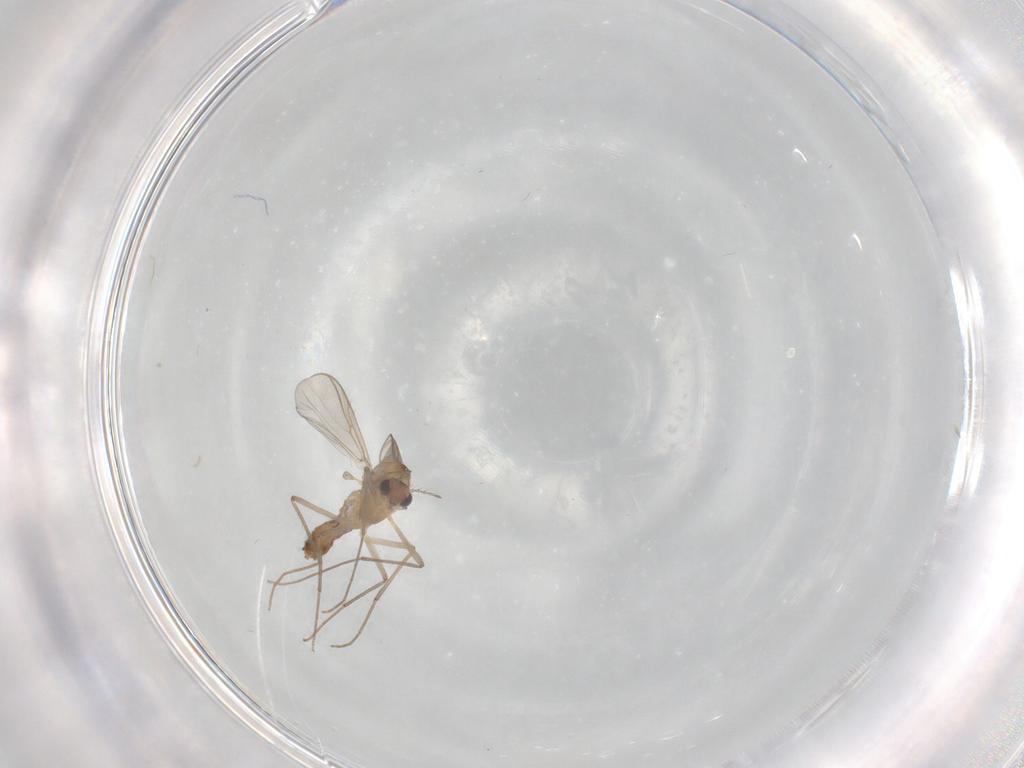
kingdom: Animalia
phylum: Arthropoda
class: Insecta
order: Diptera
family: Chironomidae
